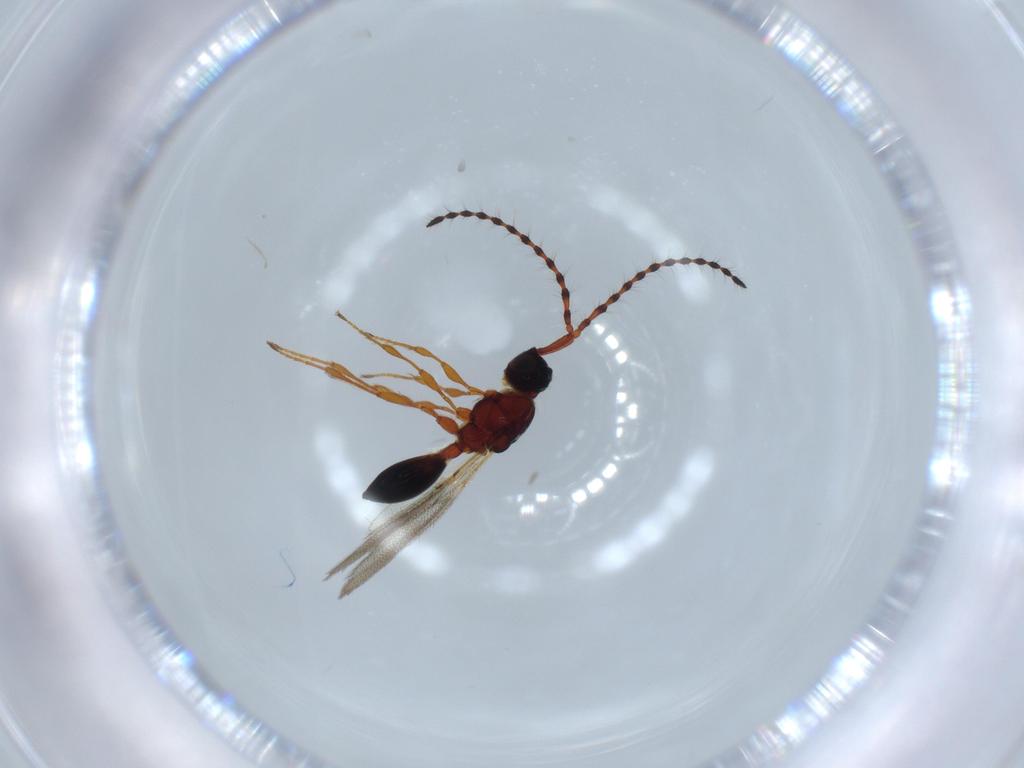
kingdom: Animalia
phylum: Arthropoda
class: Insecta
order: Hymenoptera
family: Diapriidae
